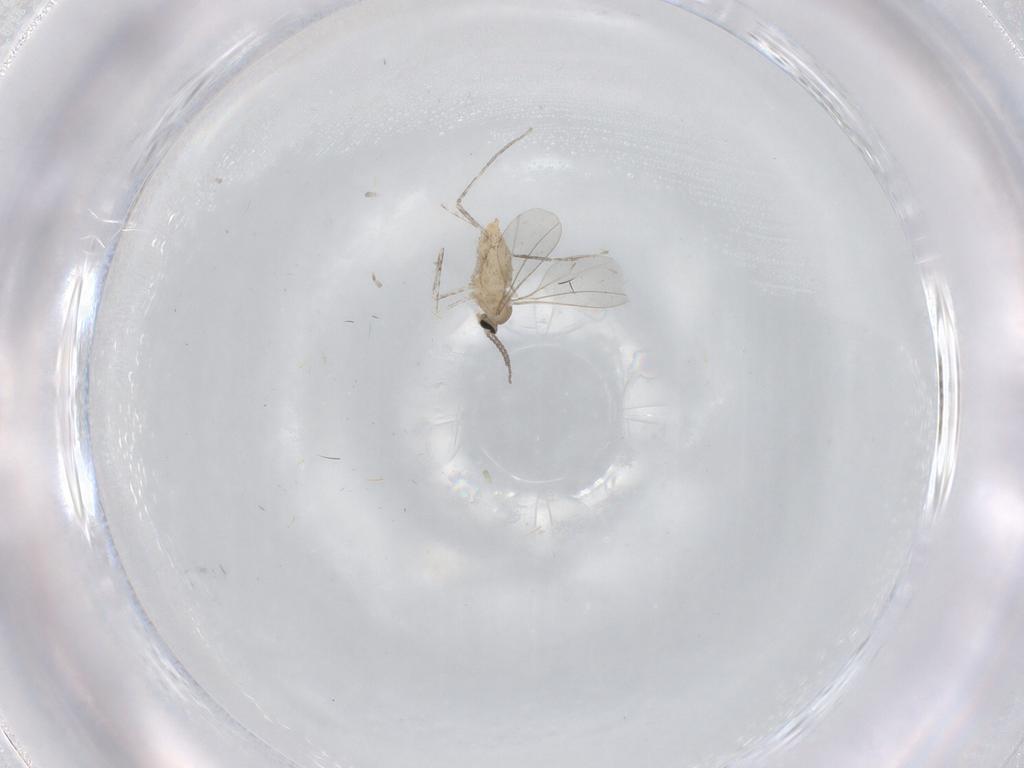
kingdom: Animalia
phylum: Arthropoda
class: Insecta
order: Diptera
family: Cecidomyiidae
